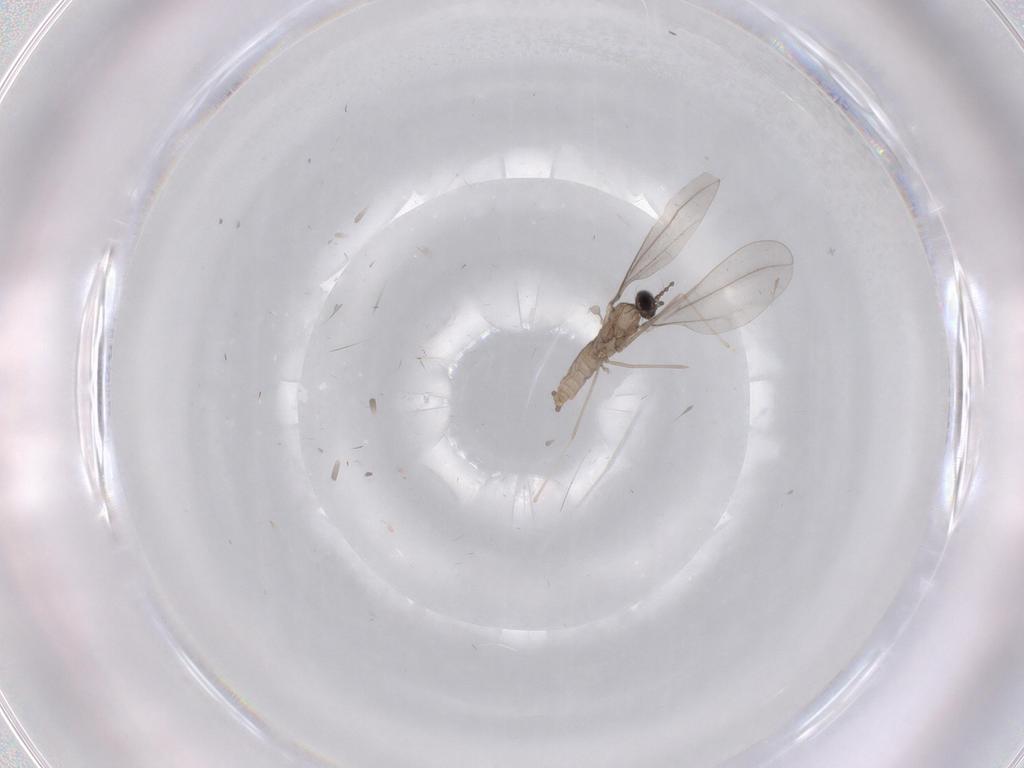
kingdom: Animalia
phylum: Arthropoda
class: Insecta
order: Diptera
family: Cecidomyiidae
